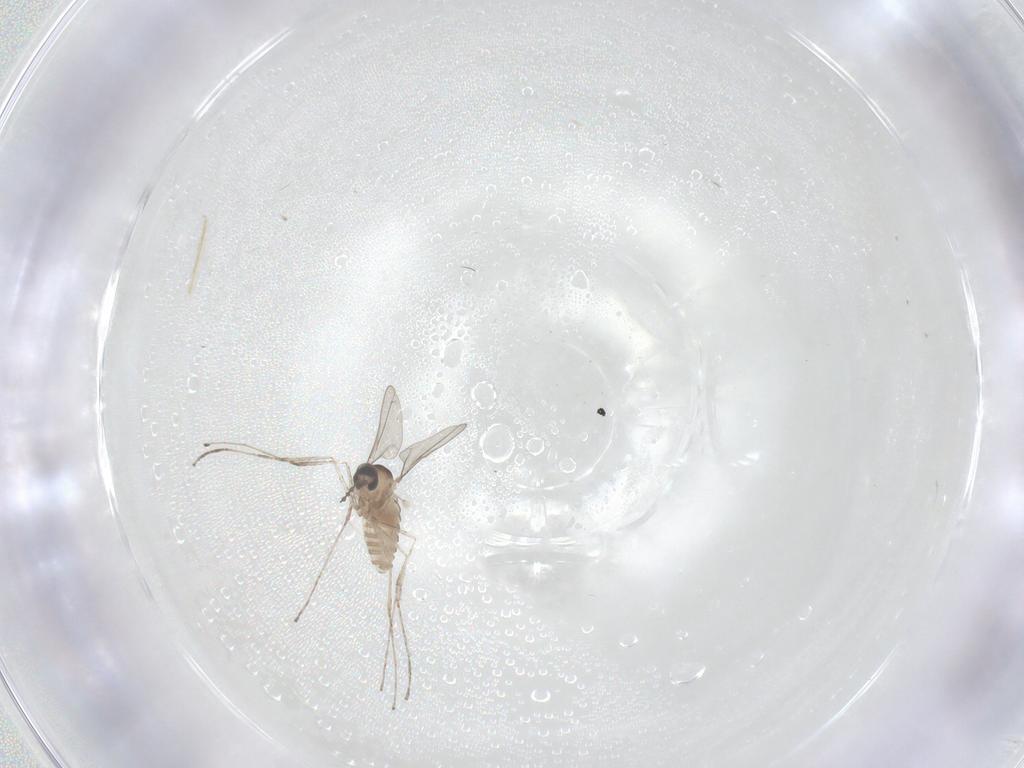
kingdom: Animalia
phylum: Arthropoda
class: Insecta
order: Diptera
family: Cecidomyiidae
